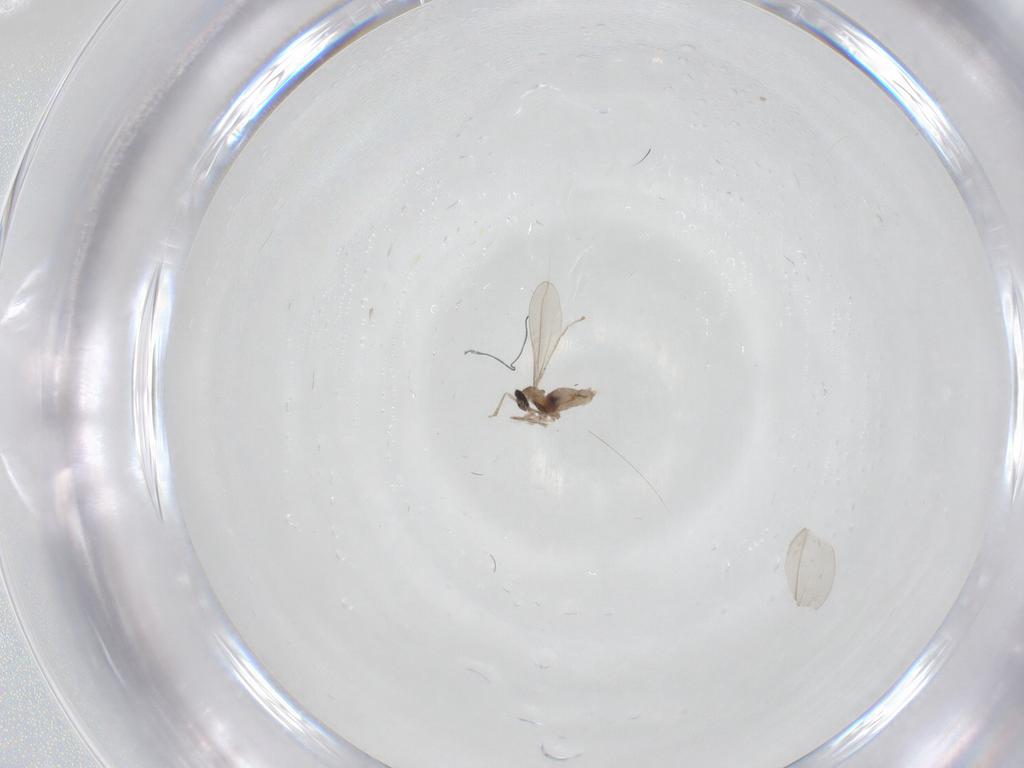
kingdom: Animalia
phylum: Arthropoda
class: Insecta
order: Diptera
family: Cecidomyiidae
